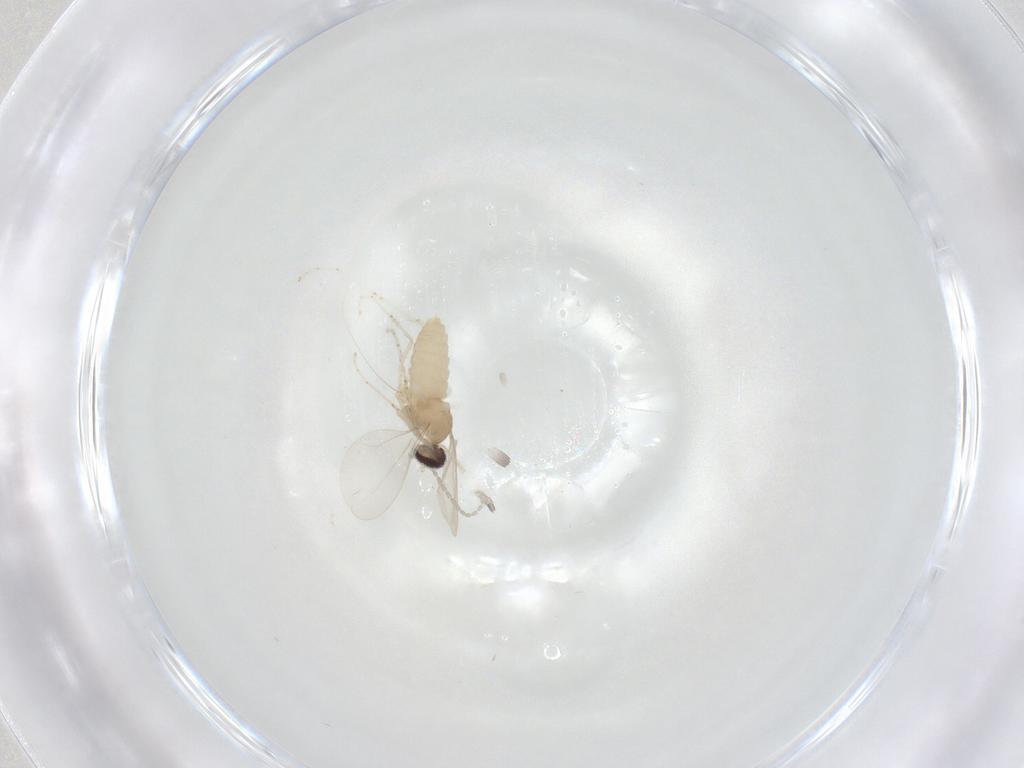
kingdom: Animalia
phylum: Arthropoda
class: Insecta
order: Diptera
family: Cecidomyiidae
